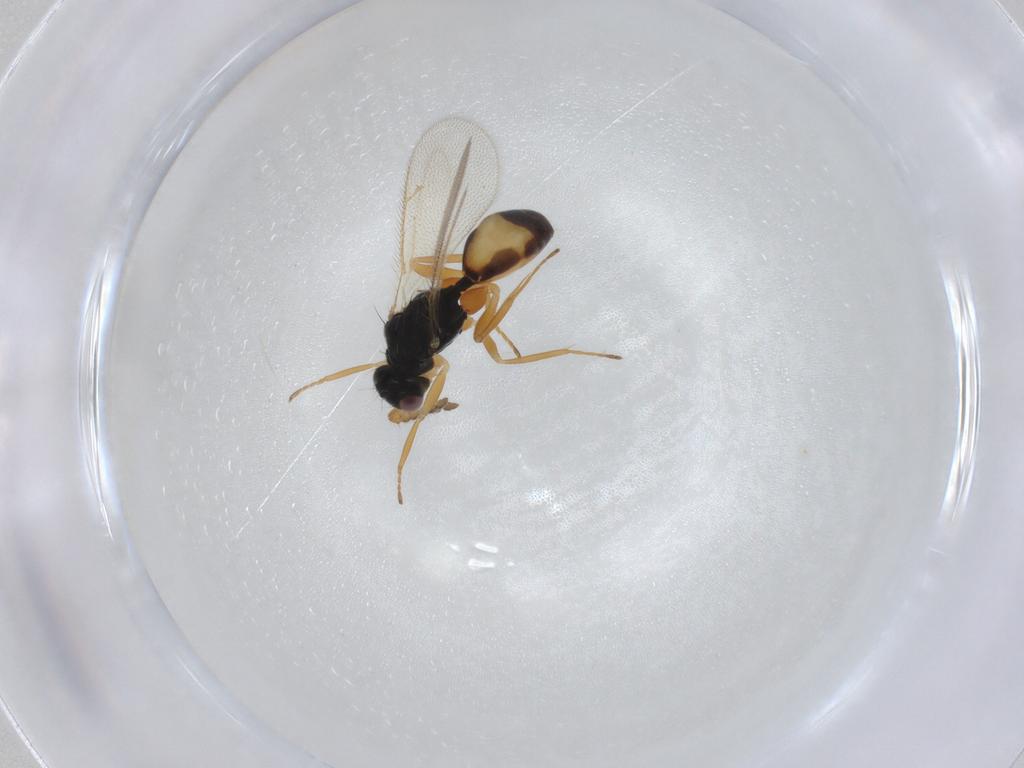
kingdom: Animalia
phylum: Arthropoda
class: Insecta
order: Hymenoptera
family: Eulophidae
